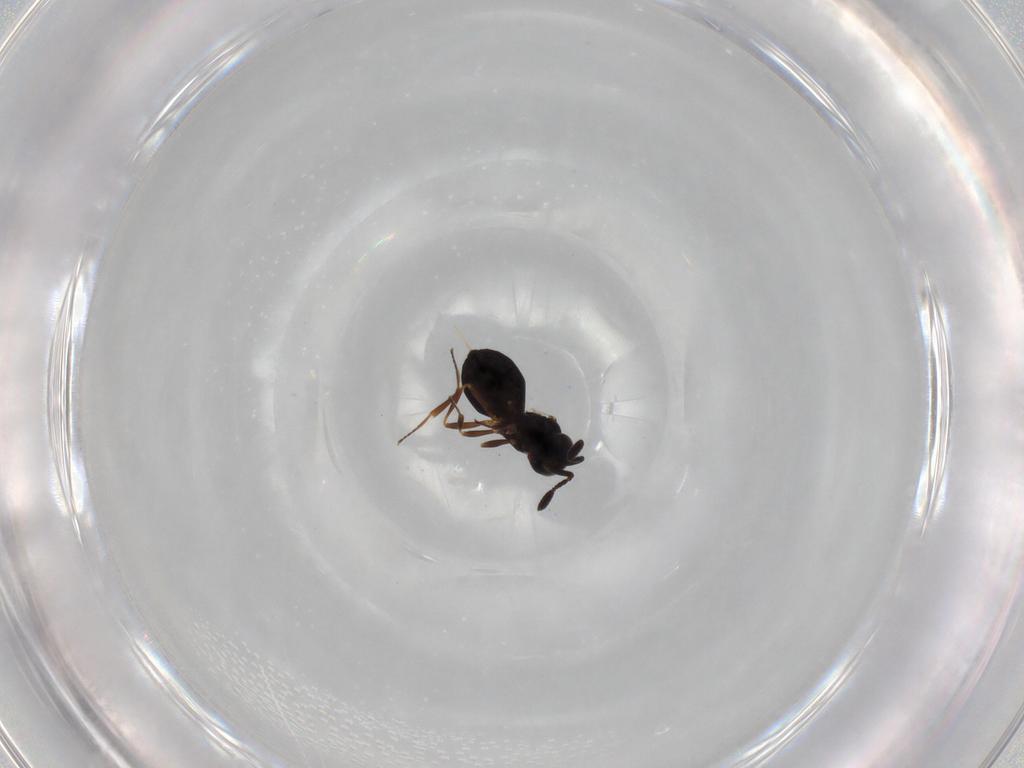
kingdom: Animalia
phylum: Arthropoda
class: Insecta
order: Hymenoptera
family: Scelionidae
